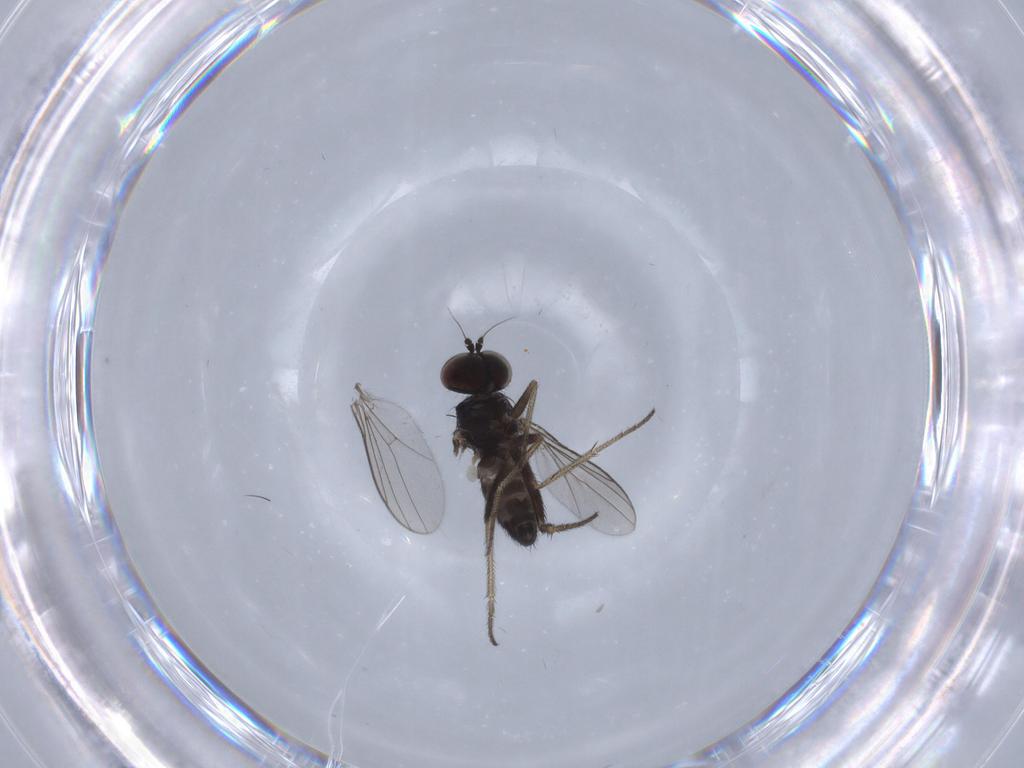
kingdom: Animalia
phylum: Arthropoda
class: Insecta
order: Diptera
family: Dolichopodidae
